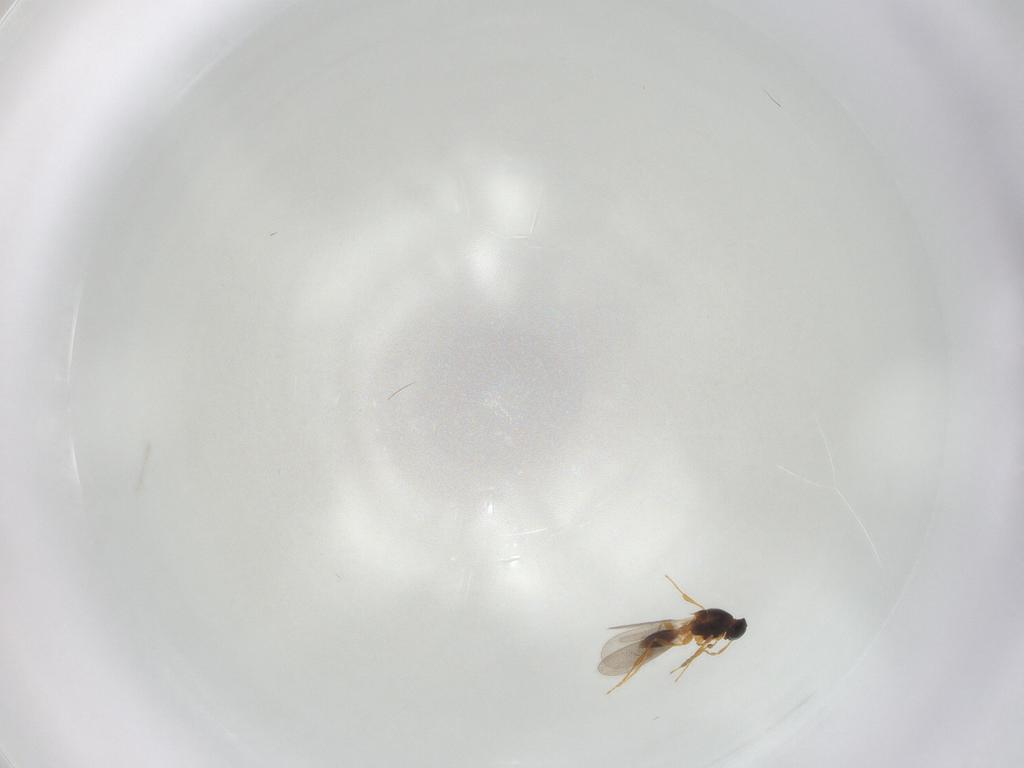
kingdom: Animalia
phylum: Arthropoda
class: Insecta
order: Hymenoptera
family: Platygastridae
